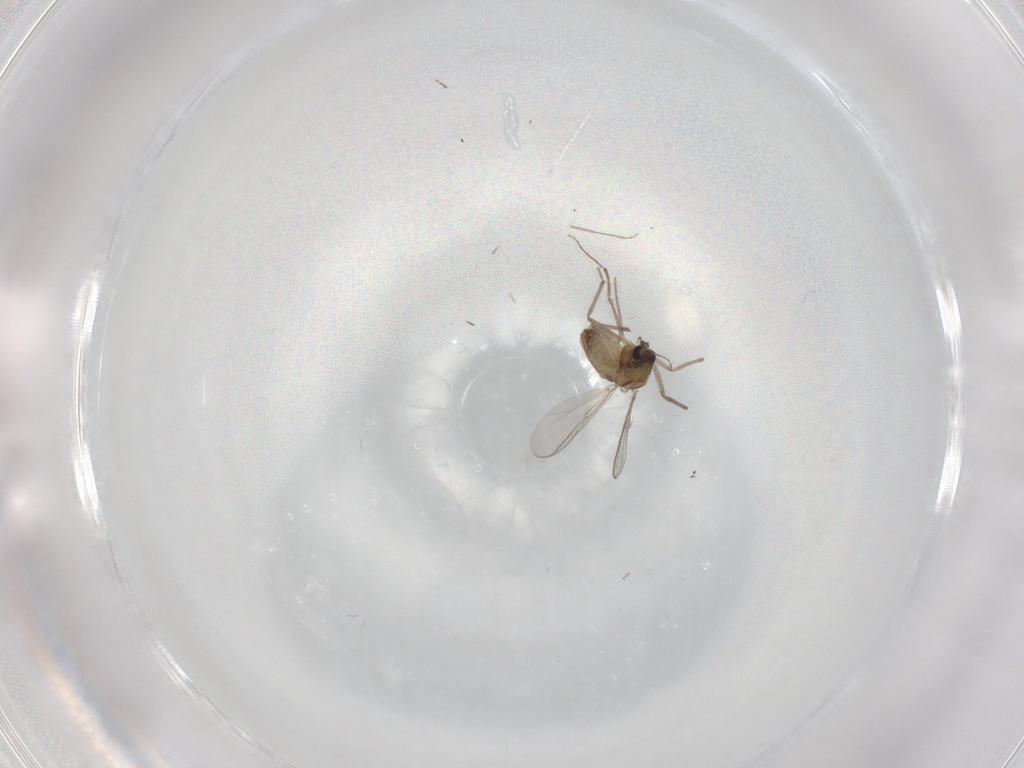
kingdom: Animalia
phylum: Arthropoda
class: Insecta
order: Diptera
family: Chironomidae
